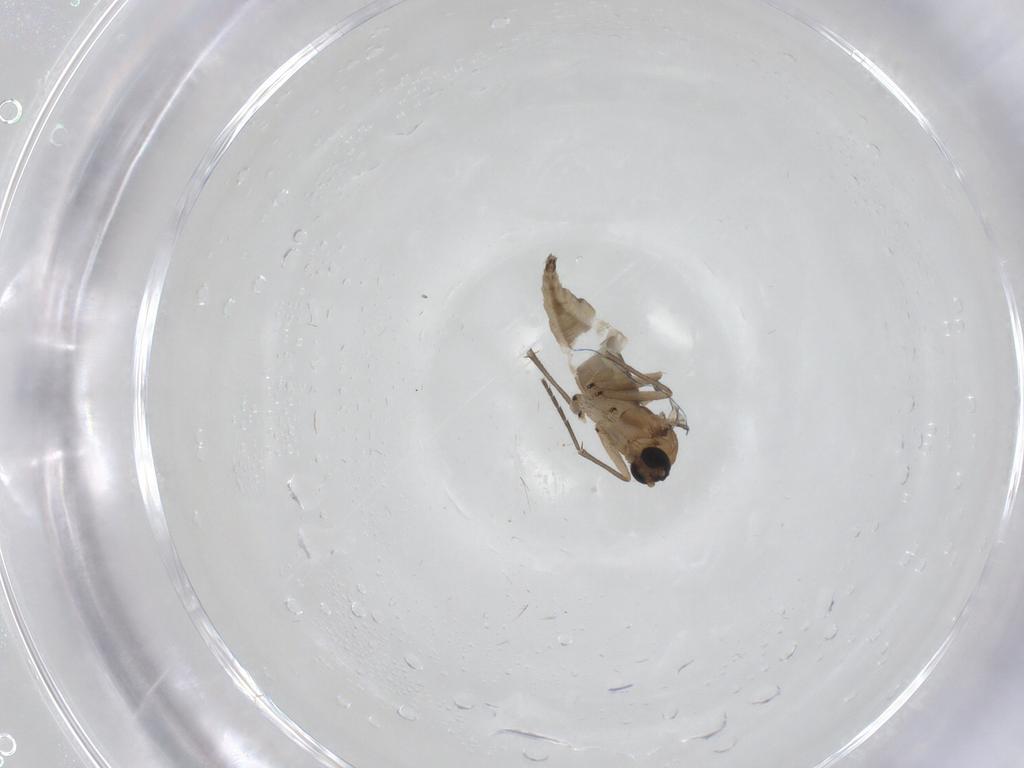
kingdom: Animalia
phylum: Arthropoda
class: Insecta
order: Diptera
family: Sciaridae
